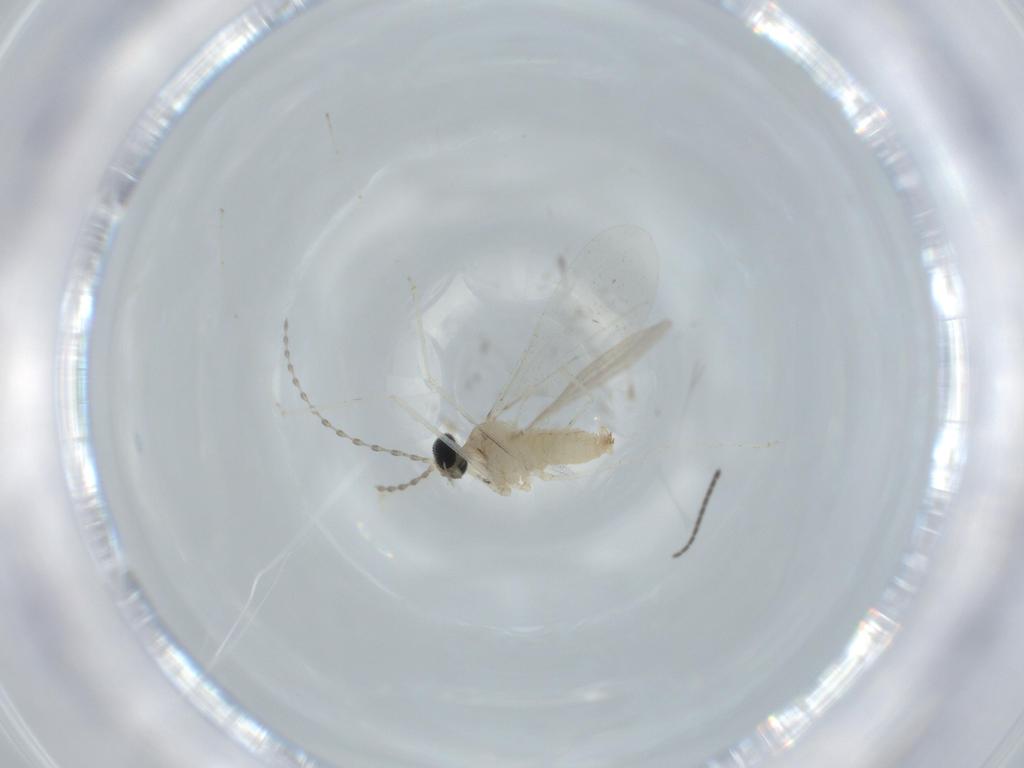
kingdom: Animalia
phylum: Arthropoda
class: Insecta
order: Diptera
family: Cecidomyiidae
